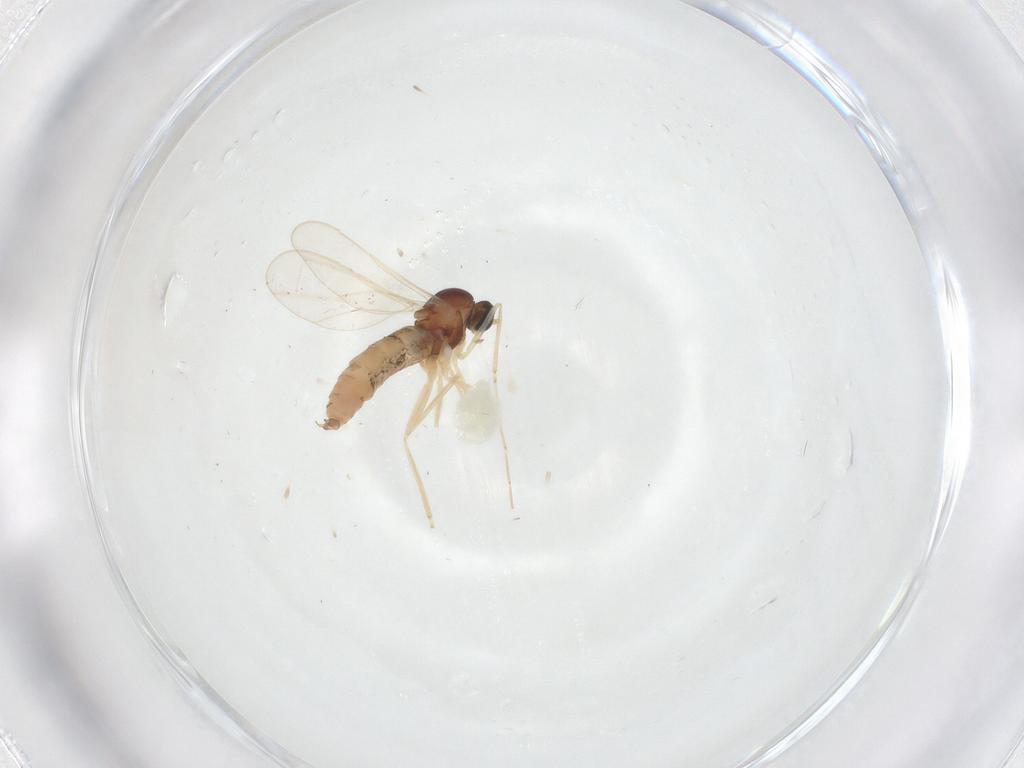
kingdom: Animalia
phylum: Arthropoda
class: Insecta
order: Diptera
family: Cecidomyiidae
